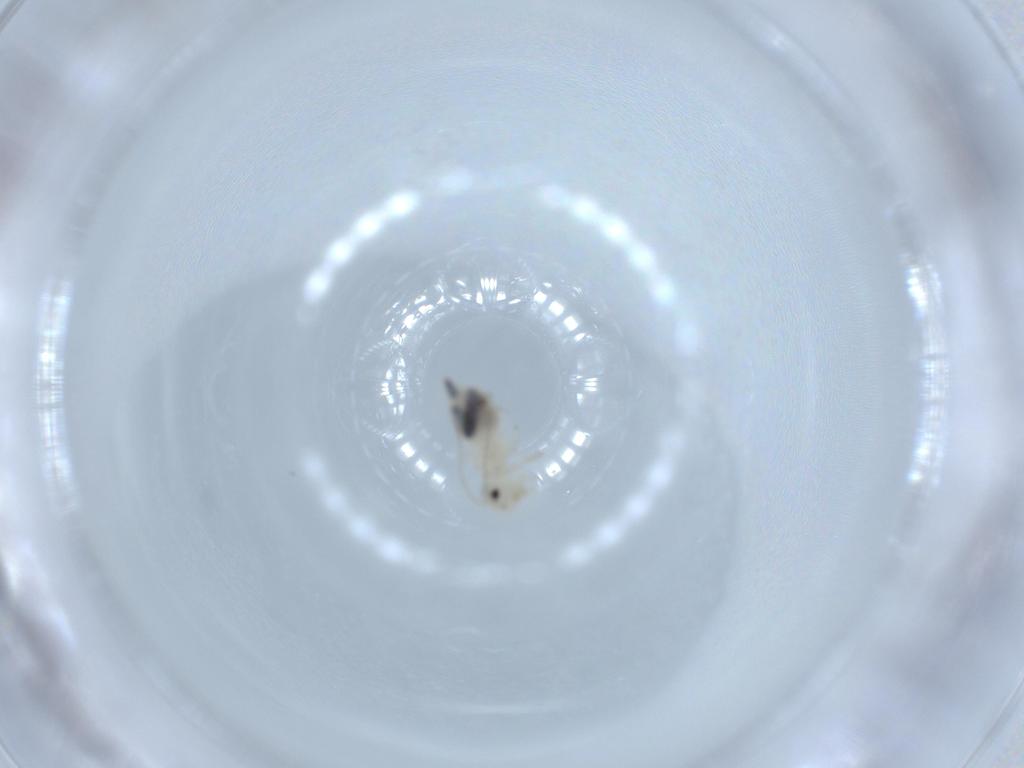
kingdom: Animalia
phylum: Arthropoda
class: Insecta
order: Psocodea
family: Caeciliusidae
